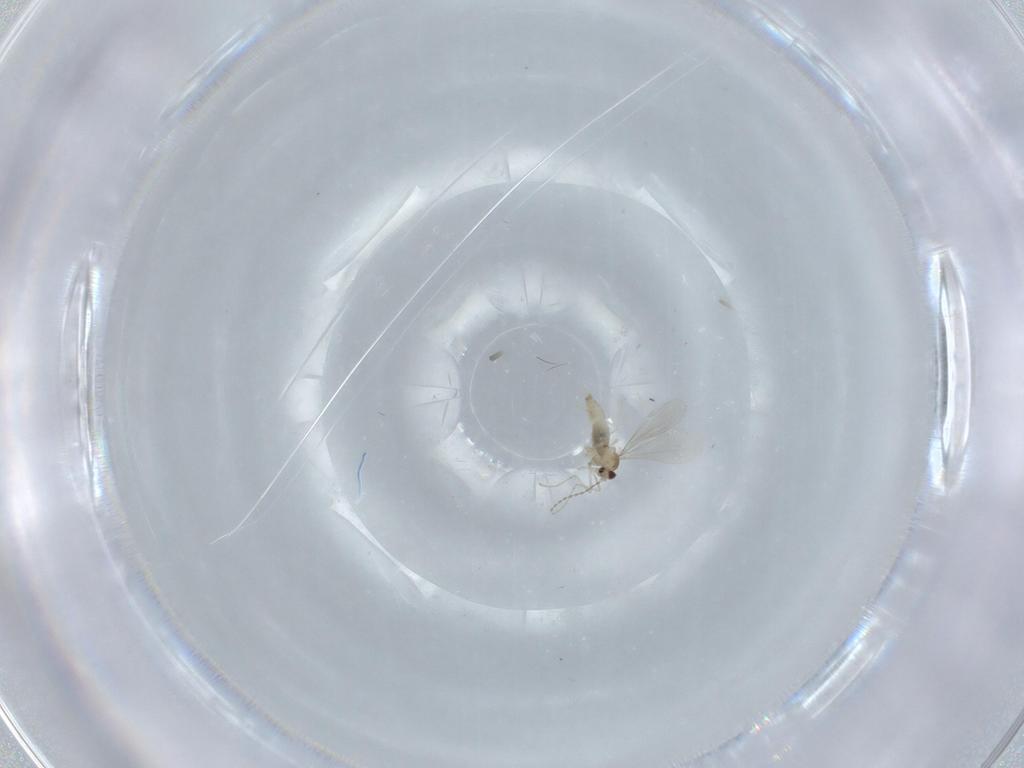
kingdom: Animalia
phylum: Arthropoda
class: Insecta
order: Diptera
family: Cecidomyiidae
